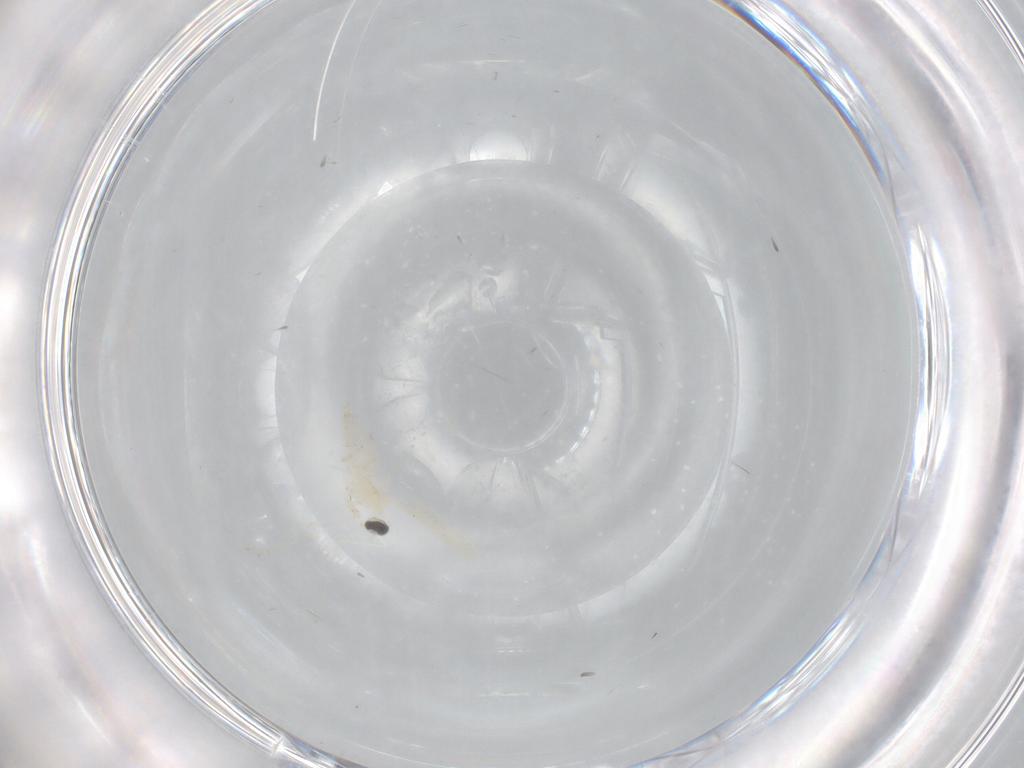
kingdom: Animalia
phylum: Arthropoda
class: Insecta
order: Diptera
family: Cecidomyiidae
